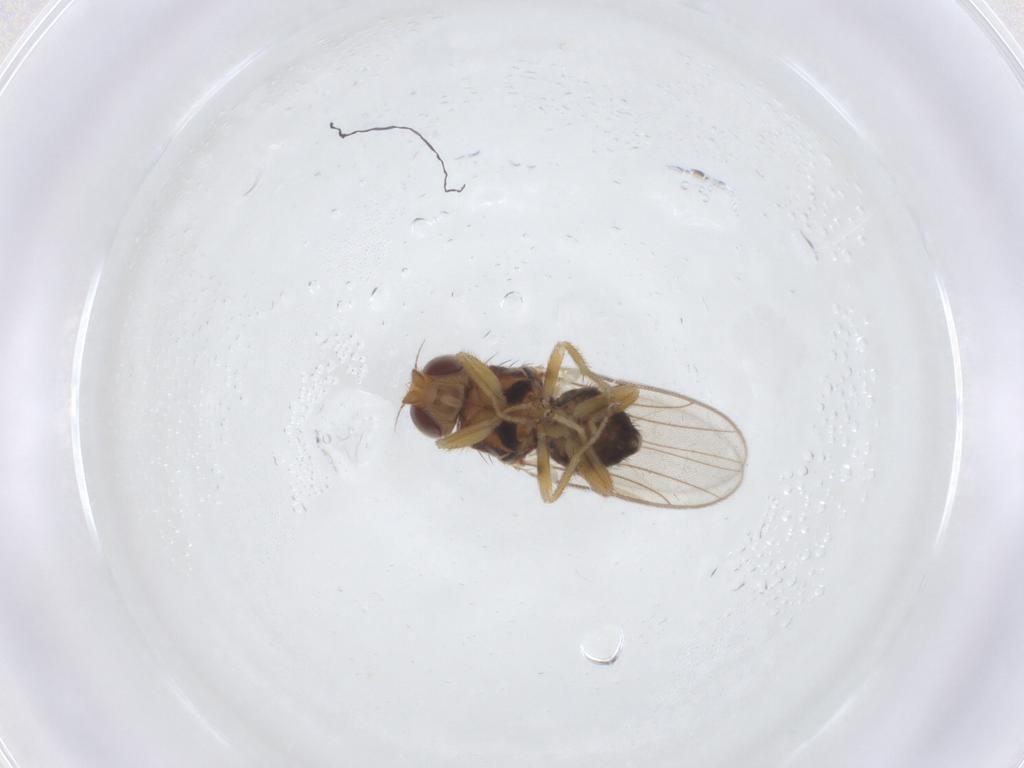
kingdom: Animalia
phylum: Arthropoda
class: Insecta
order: Diptera
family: Chloropidae
